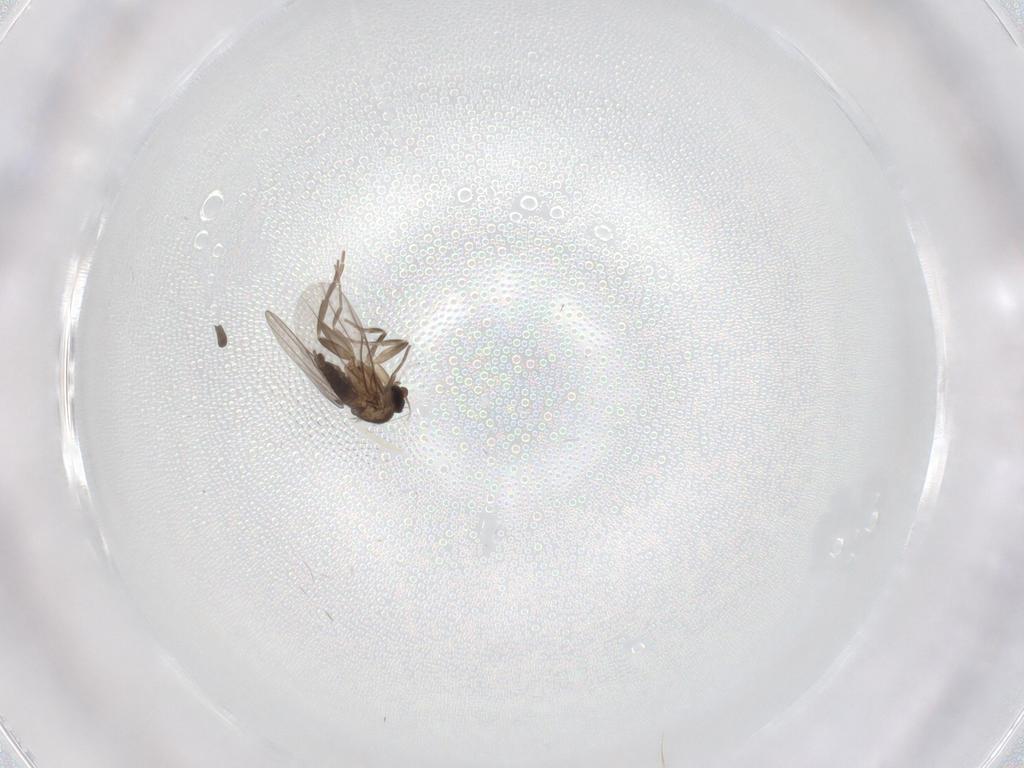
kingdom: Animalia
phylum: Arthropoda
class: Insecta
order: Diptera
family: Chironomidae
